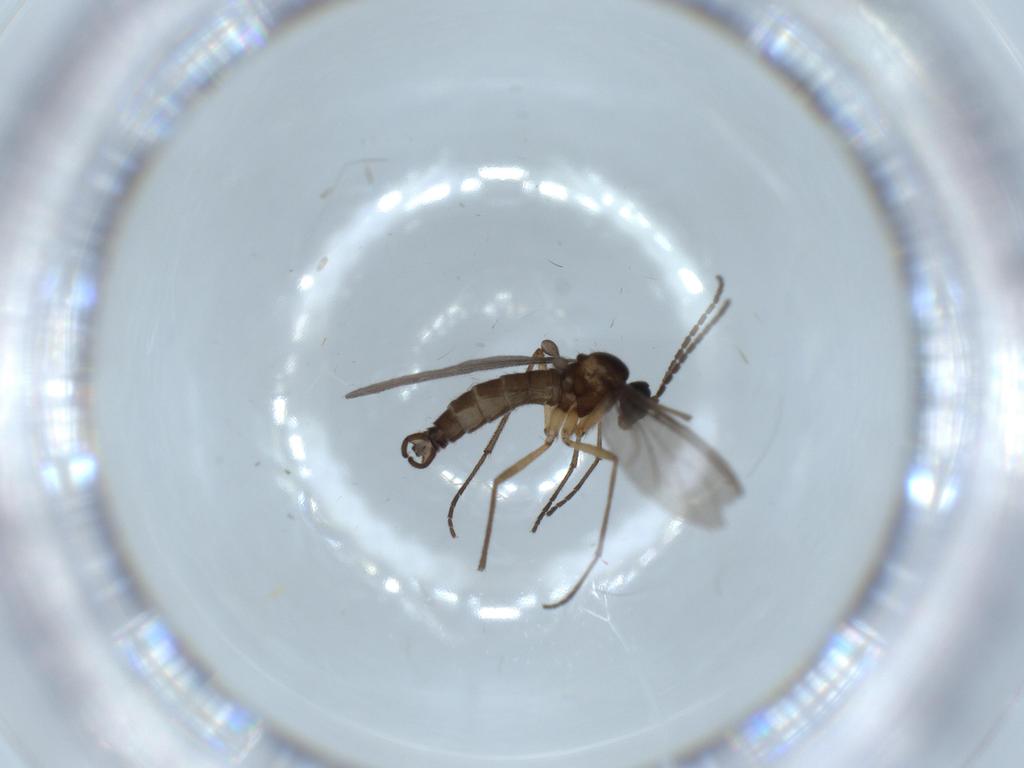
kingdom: Animalia
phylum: Arthropoda
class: Insecta
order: Diptera
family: Sciaridae
